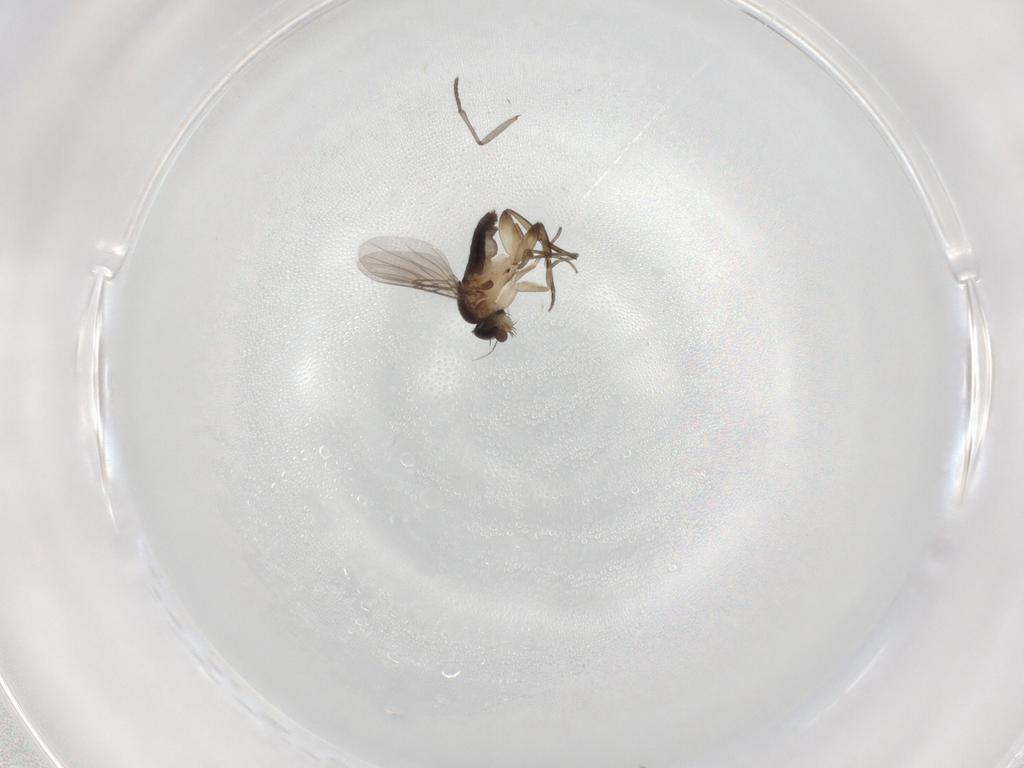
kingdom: Animalia
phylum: Arthropoda
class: Insecta
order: Diptera
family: Phoridae
